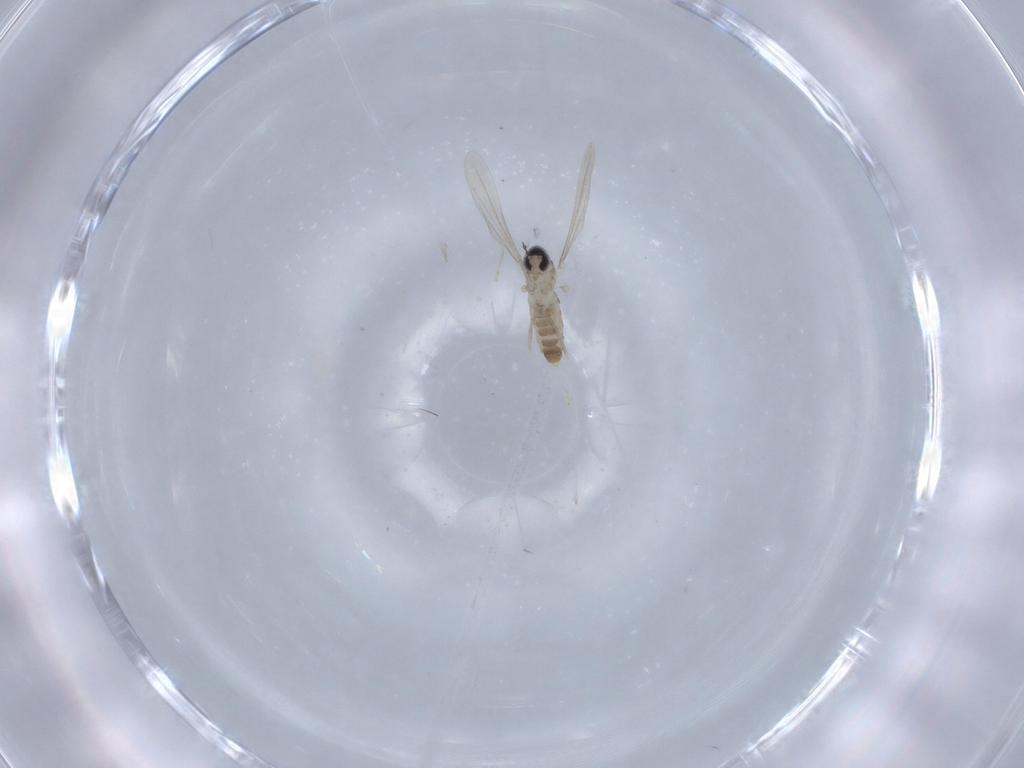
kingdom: Animalia
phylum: Arthropoda
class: Insecta
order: Diptera
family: Cecidomyiidae
